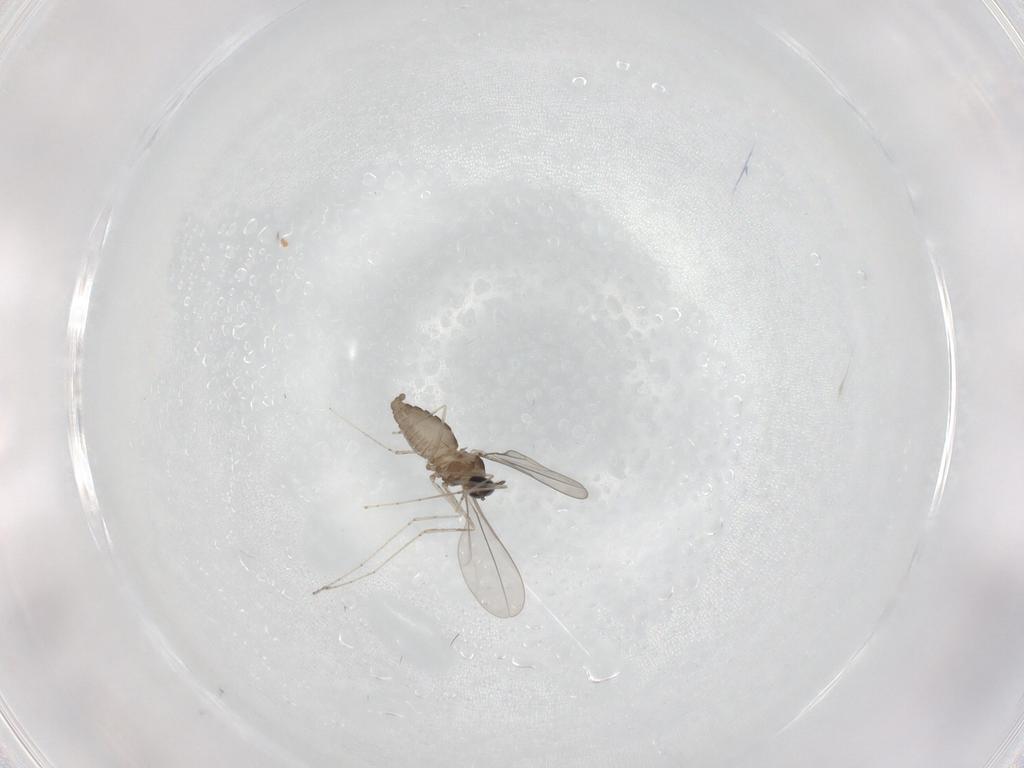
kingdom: Animalia
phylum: Arthropoda
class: Insecta
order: Diptera
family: Cecidomyiidae
